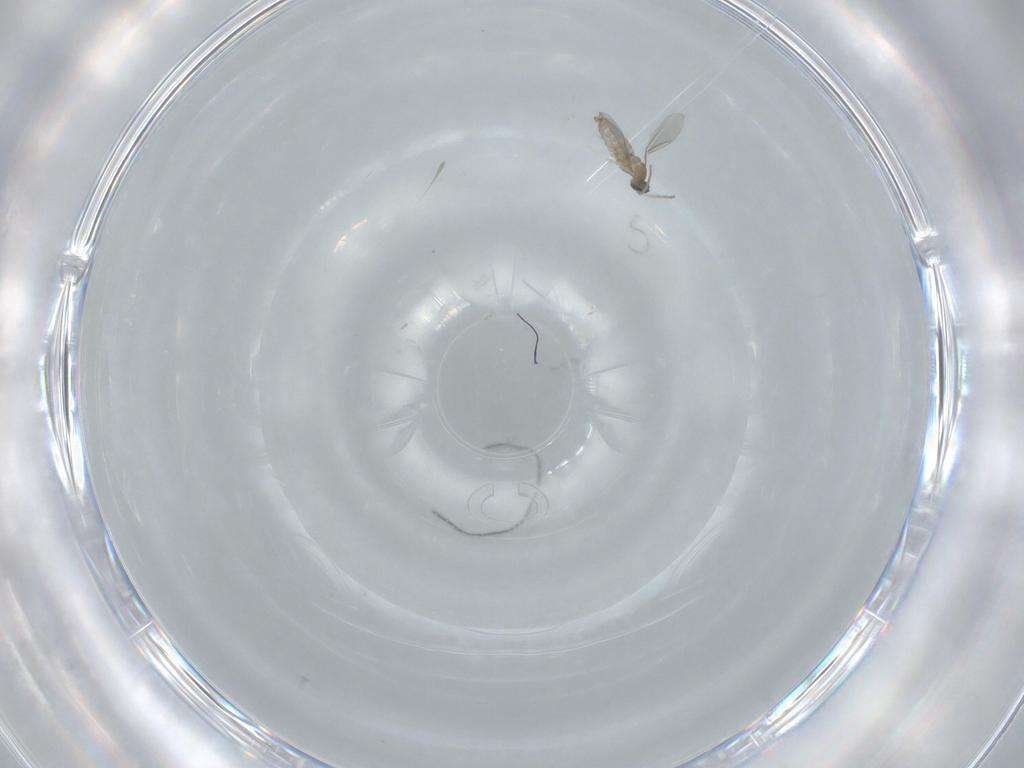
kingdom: Animalia
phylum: Arthropoda
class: Insecta
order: Diptera
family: Cecidomyiidae
